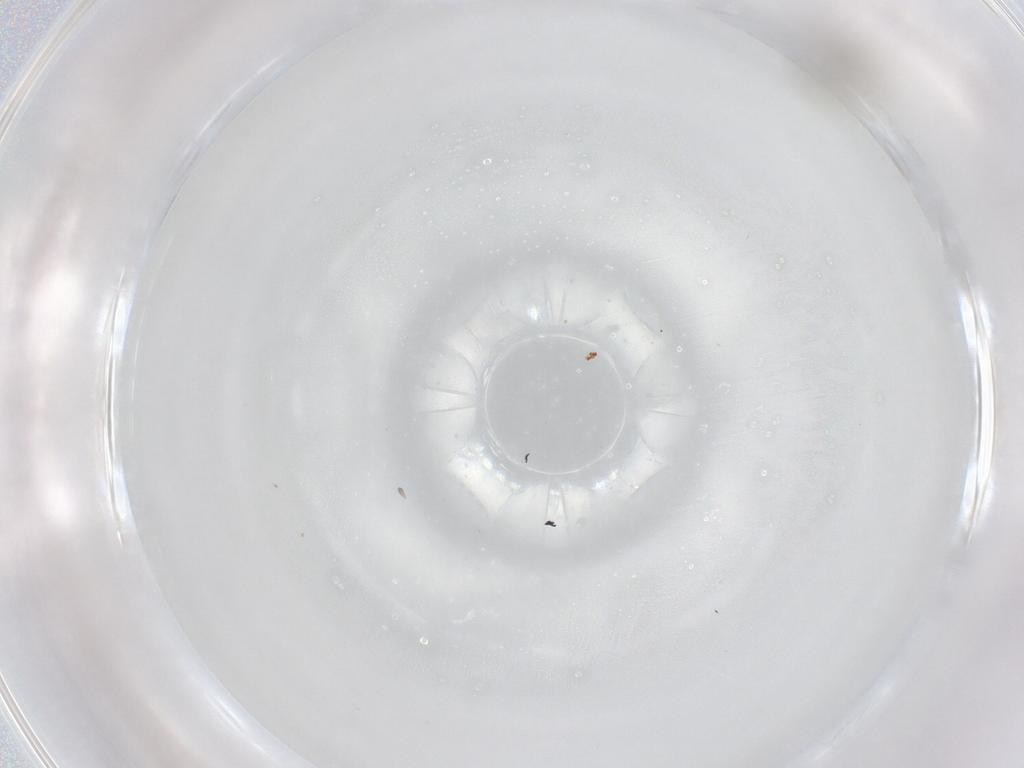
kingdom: Animalia
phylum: Arthropoda
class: Insecta
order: Diptera
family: Cecidomyiidae
